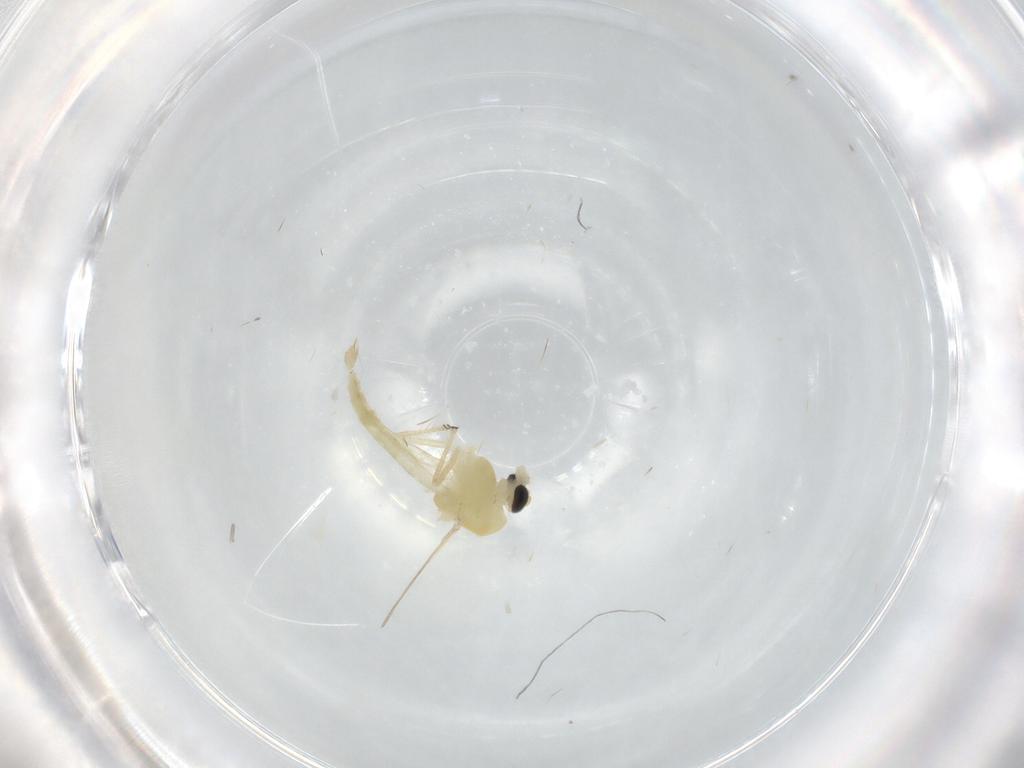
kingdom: Animalia
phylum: Arthropoda
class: Insecta
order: Diptera
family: Chironomidae
